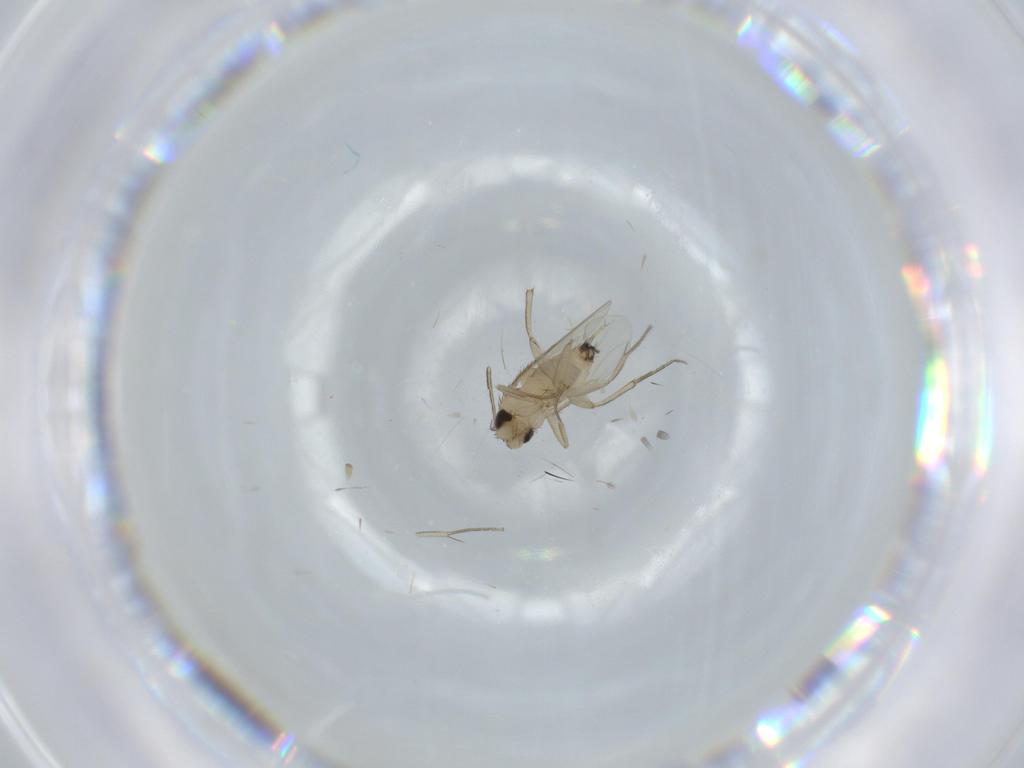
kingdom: Animalia
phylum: Arthropoda
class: Insecta
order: Diptera
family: Phoridae
